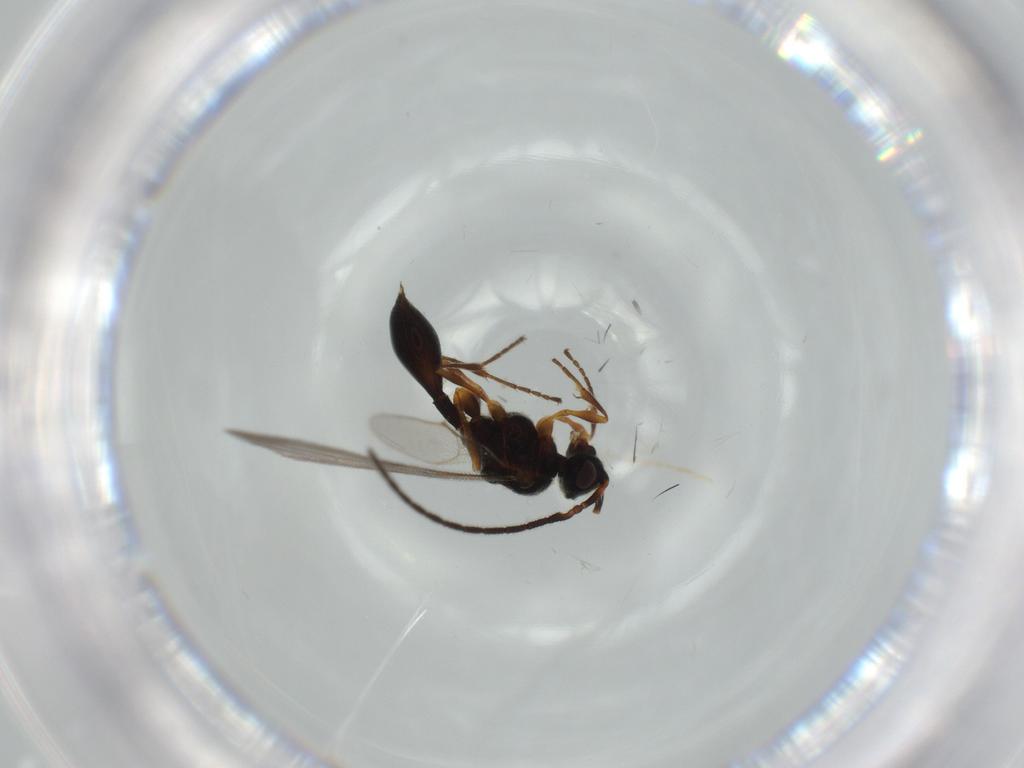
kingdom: Animalia
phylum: Arthropoda
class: Insecta
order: Hymenoptera
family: Diapriidae
